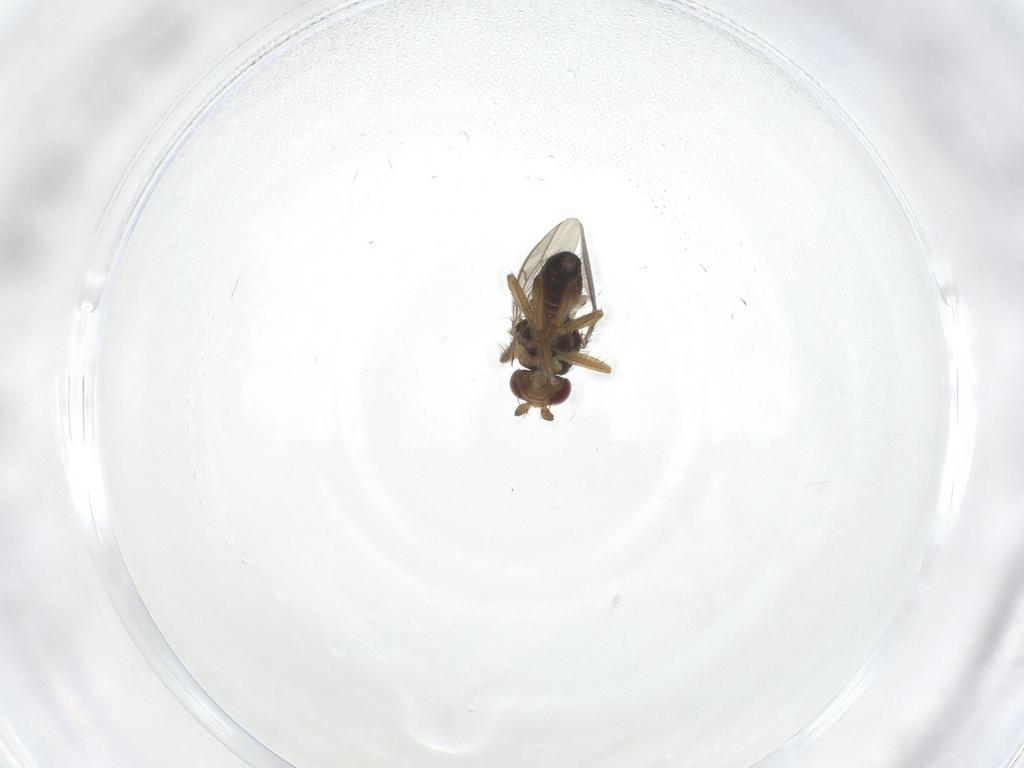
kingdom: Animalia
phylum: Arthropoda
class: Insecta
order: Diptera
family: Sphaeroceridae
